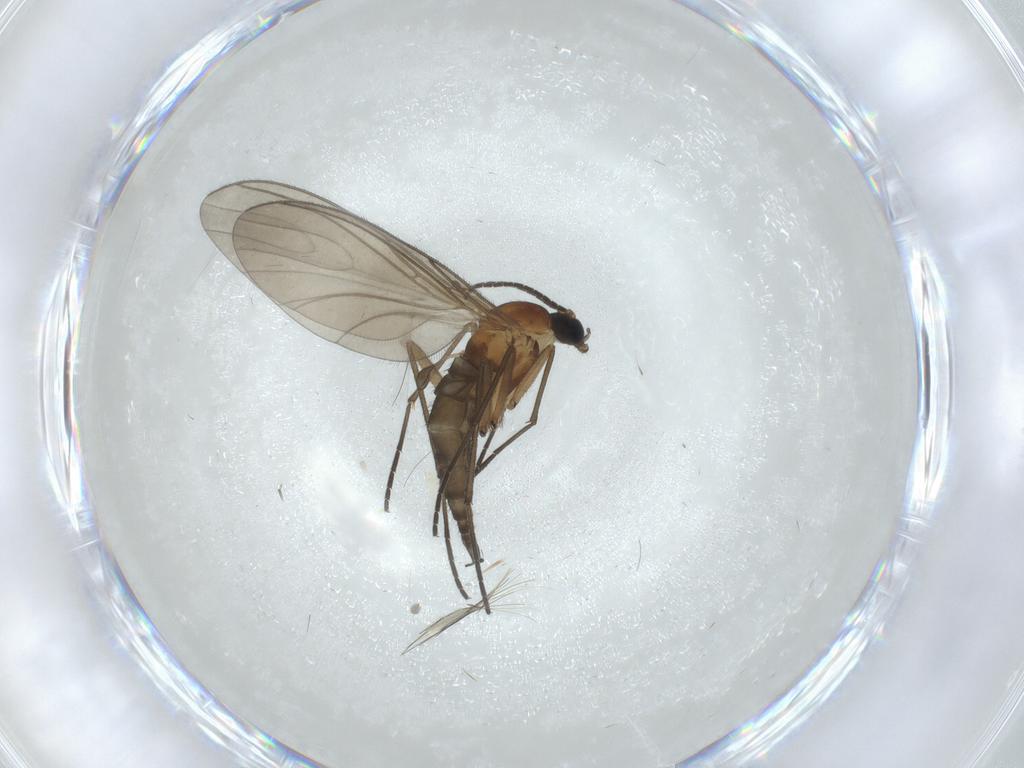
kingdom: Animalia
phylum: Arthropoda
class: Insecta
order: Diptera
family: Sciaridae
